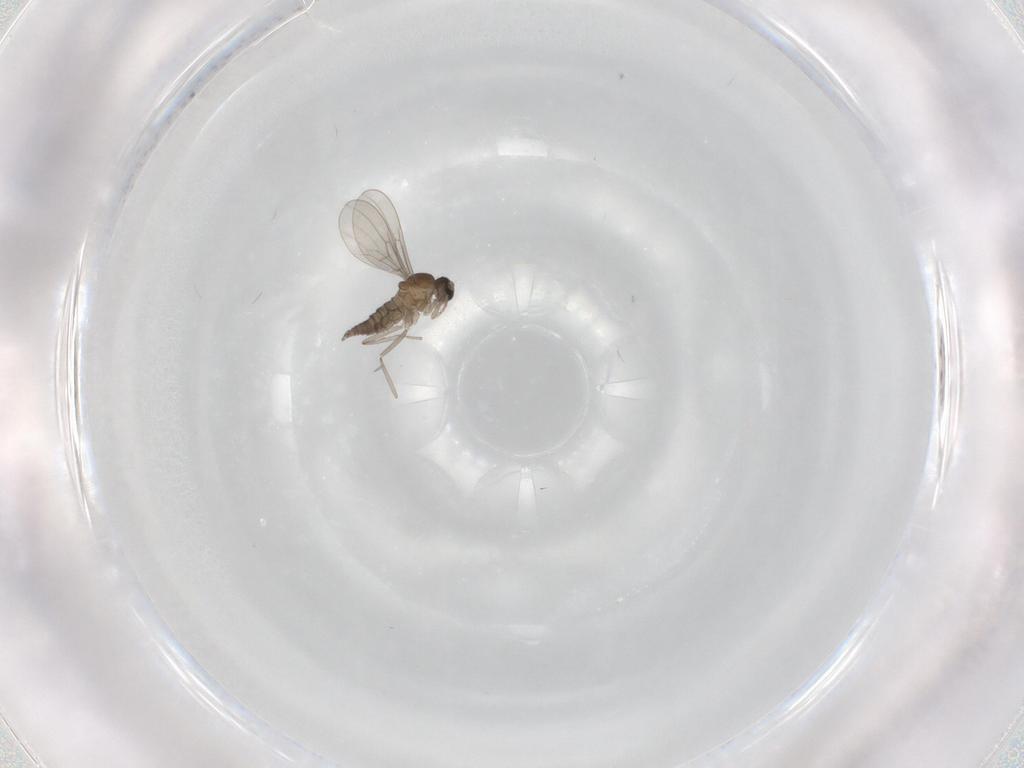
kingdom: Animalia
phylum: Arthropoda
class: Insecta
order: Diptera
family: Cecidomyiidae
